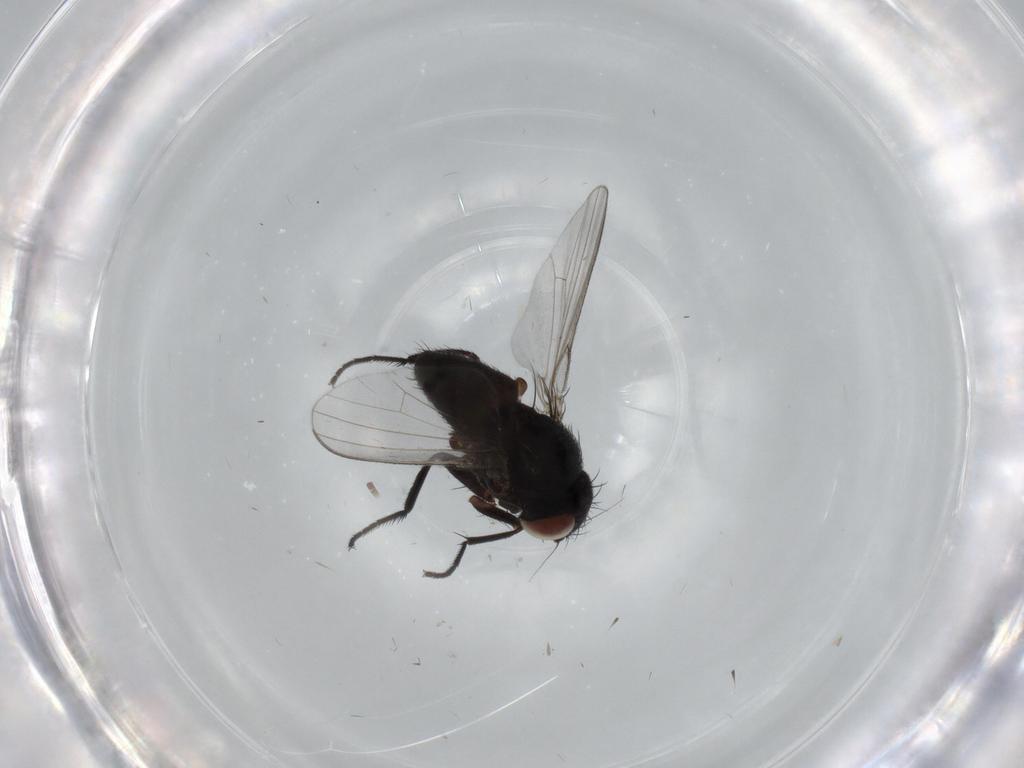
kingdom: Animalia
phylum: Arthropoda
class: Insecta
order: Diptera
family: Milichiidae
